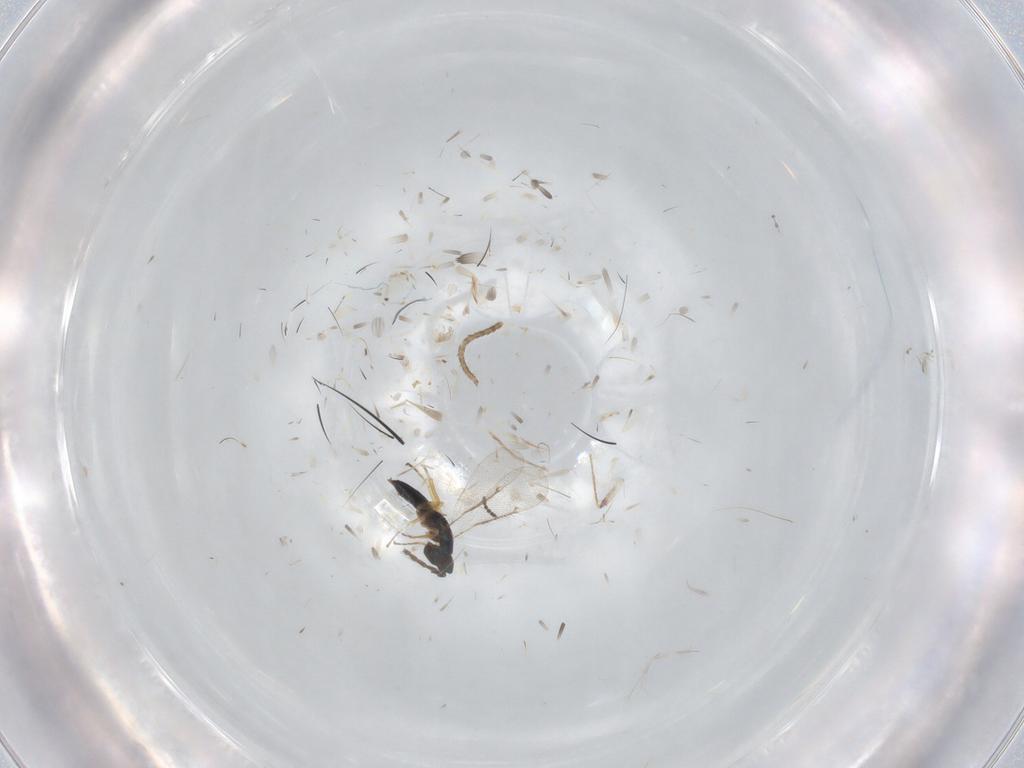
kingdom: Animalia
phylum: Arthropoda
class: Insecta
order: Hymenoptera
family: Eulophidae
